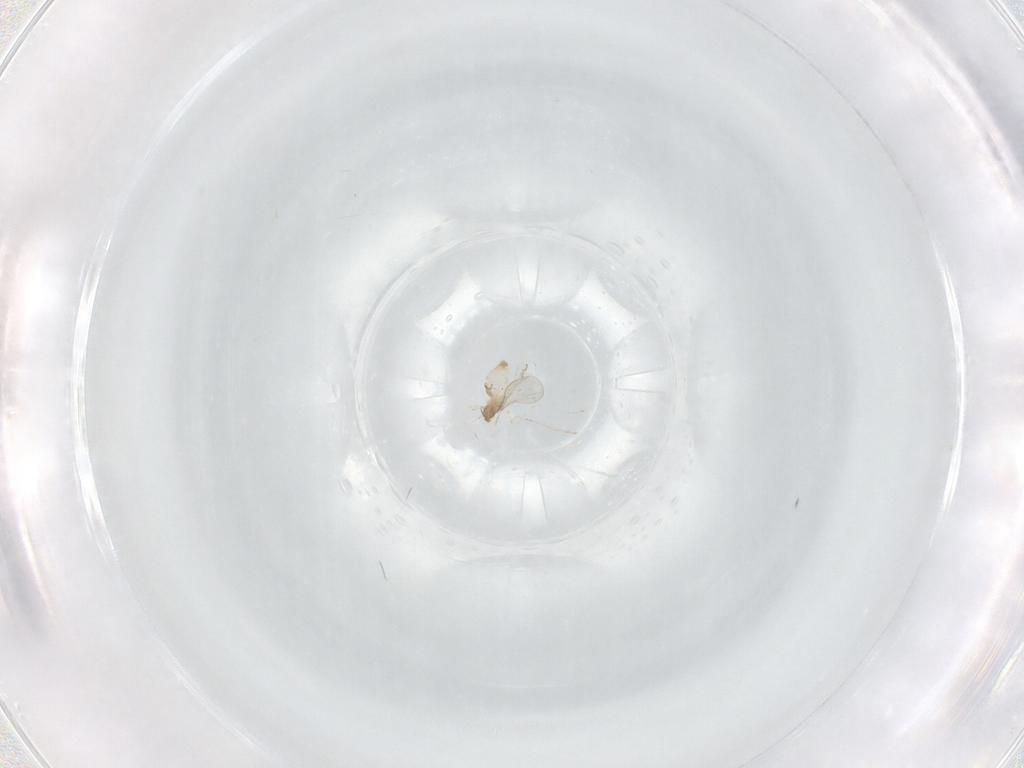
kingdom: Animalia
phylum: Arthropoda
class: Insecta
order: Diptera
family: Cecidomyiidae
